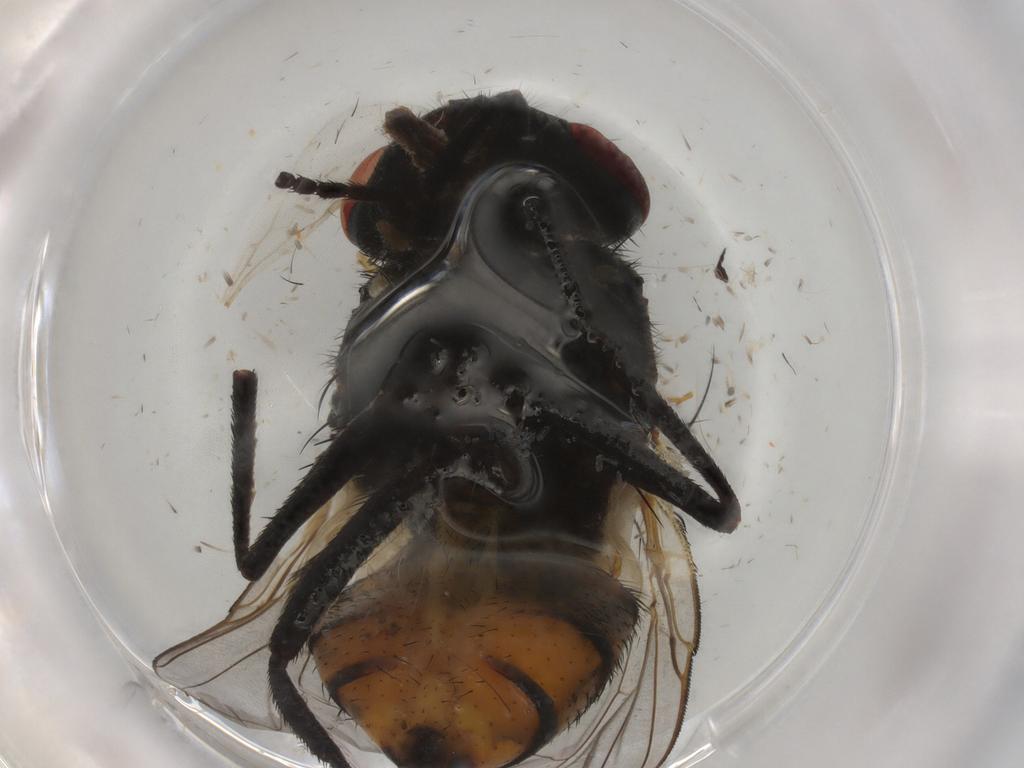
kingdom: Animalia
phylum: Arthropoda
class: Insecta
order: Diptera
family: Muscidae
